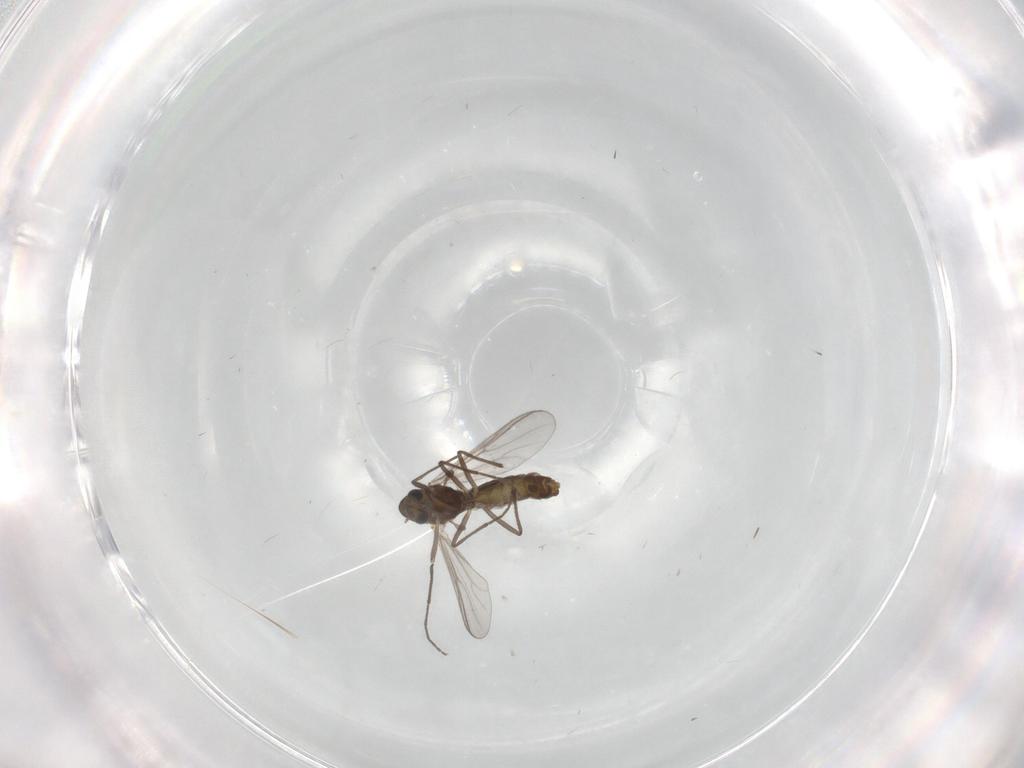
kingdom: Animalia
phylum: Arthropoda
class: Insecta
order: Diptera
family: Chironomidae
